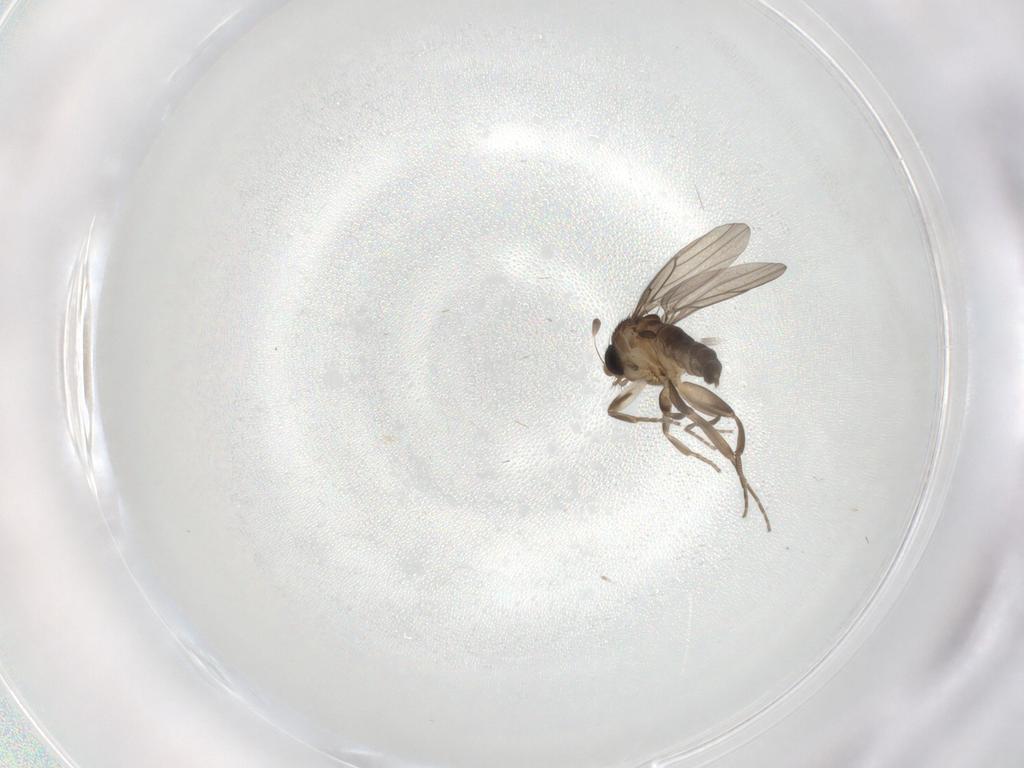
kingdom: Animalia
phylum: Arthropoda
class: Insecta
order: Diptera
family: Phoridae
